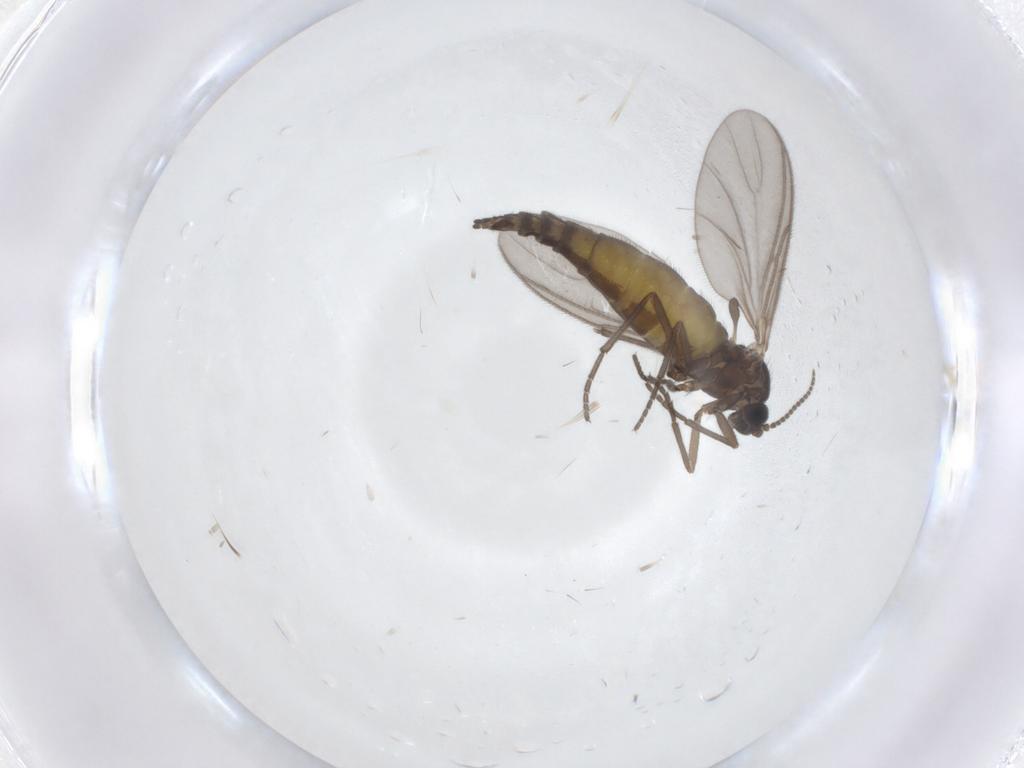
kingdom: Animalia
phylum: Arthropoda
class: Insecta
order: Diptera
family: Sciaridae
